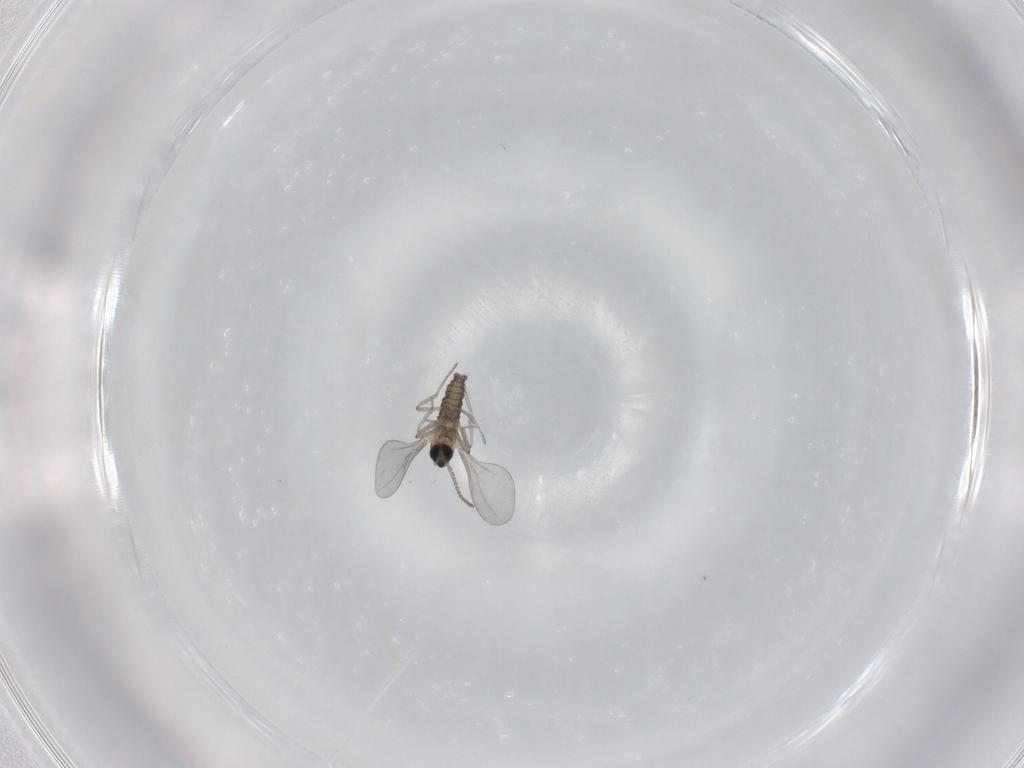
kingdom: Animalia
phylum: Arthropoda
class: Insecta
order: Diptera
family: Cecidomyiidae
